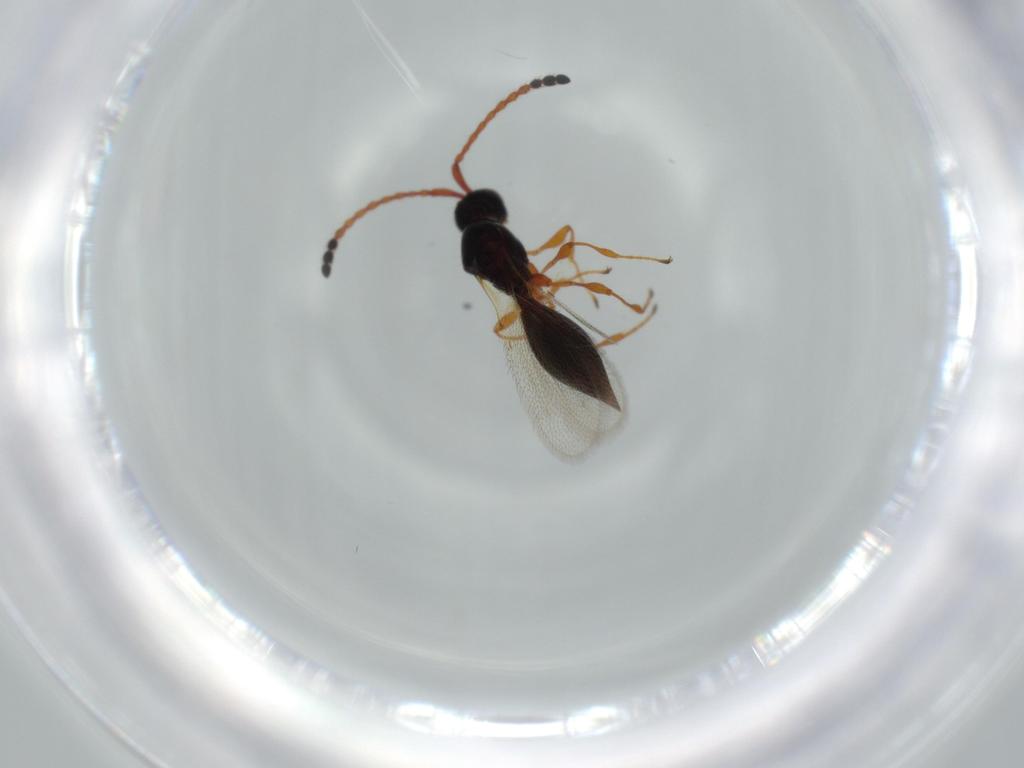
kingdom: Animalia
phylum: Arthropoda
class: Insecta
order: Hymenoptera
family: Diapriidae
